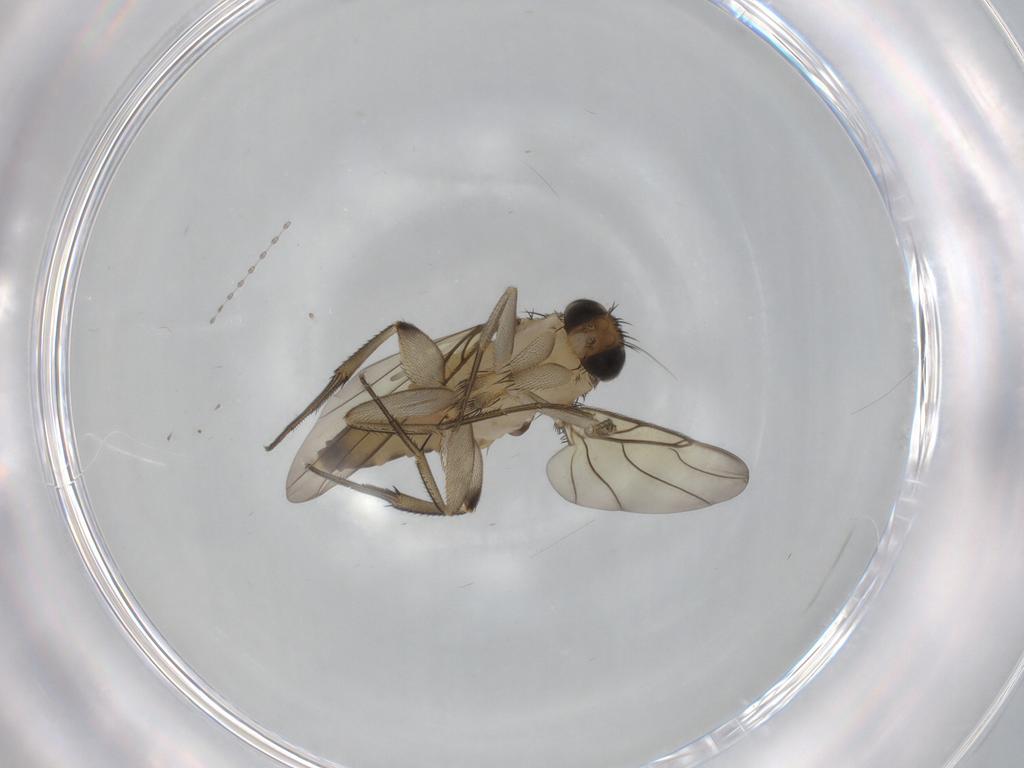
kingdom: Animalia
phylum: Arthropoda
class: Insecta
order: Diptera
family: Phoridae
